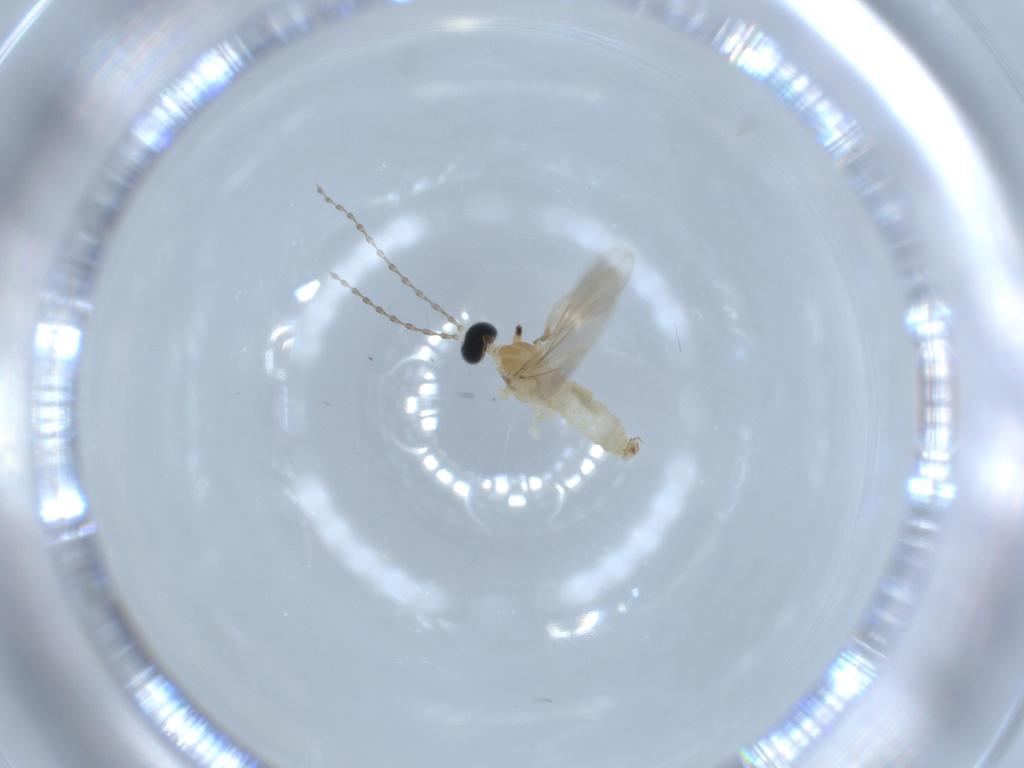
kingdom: Animalia
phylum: Arthropoda
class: Insecta
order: Diptera
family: Cecidomyiidae
